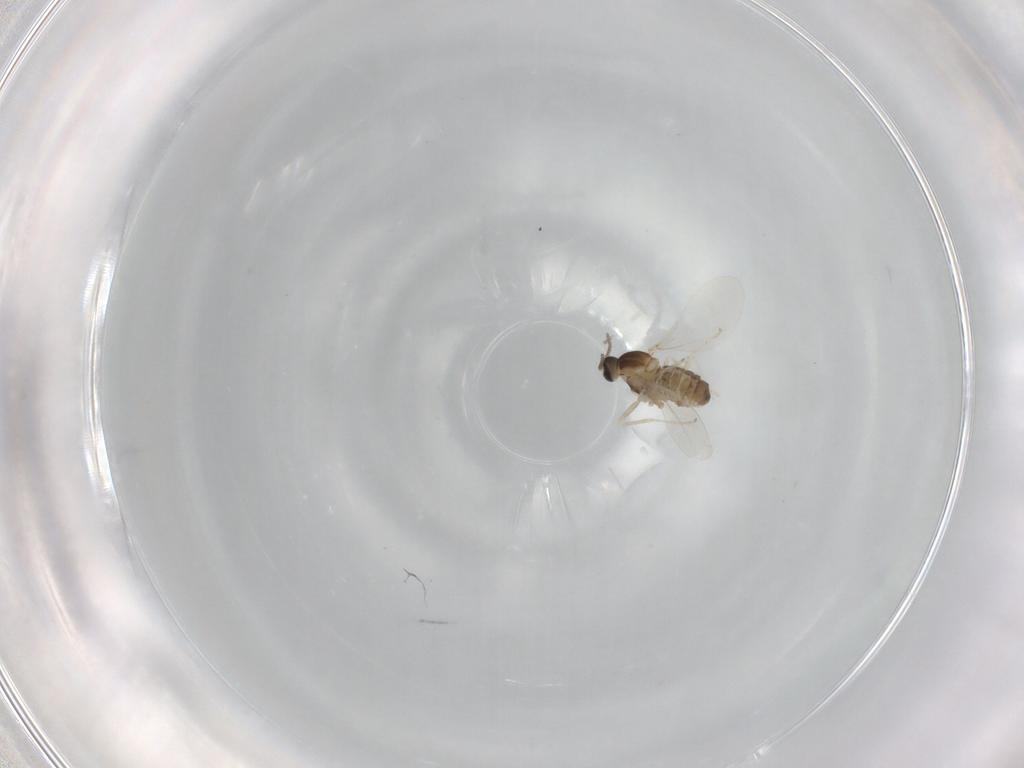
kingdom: Animalia
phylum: Arthropoda
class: Insecta
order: Diptera
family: Cecidomyiidae
